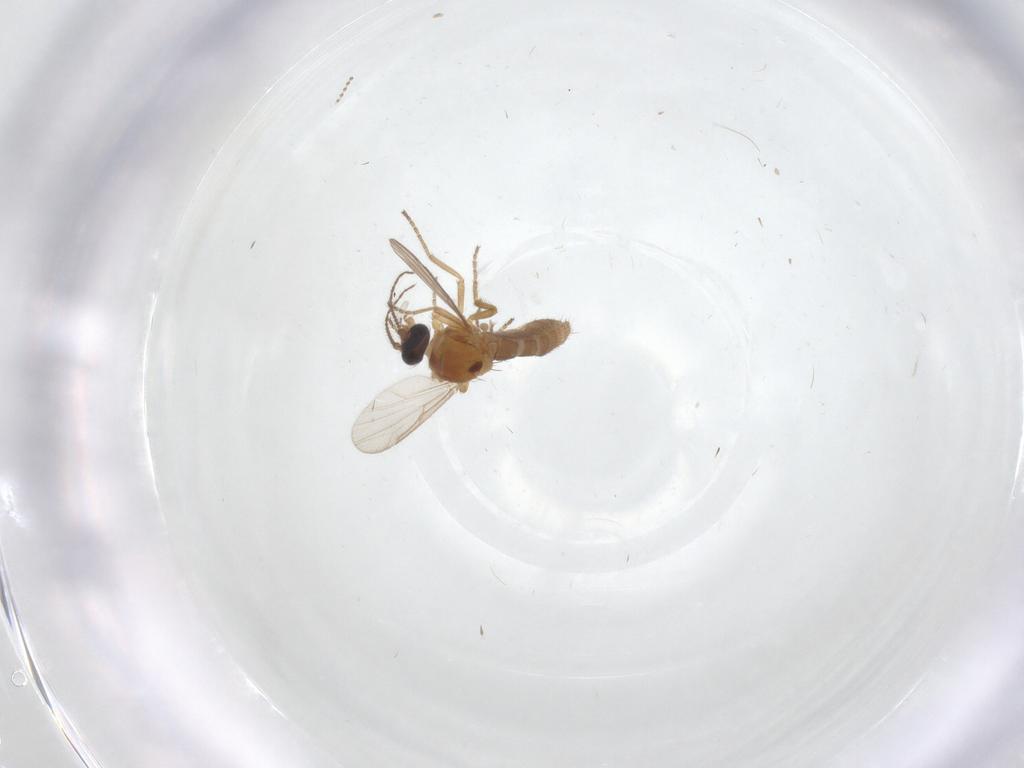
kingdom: Animalia
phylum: Arthropoda
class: Insecta
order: Diptera
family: Ceratopogonidae
